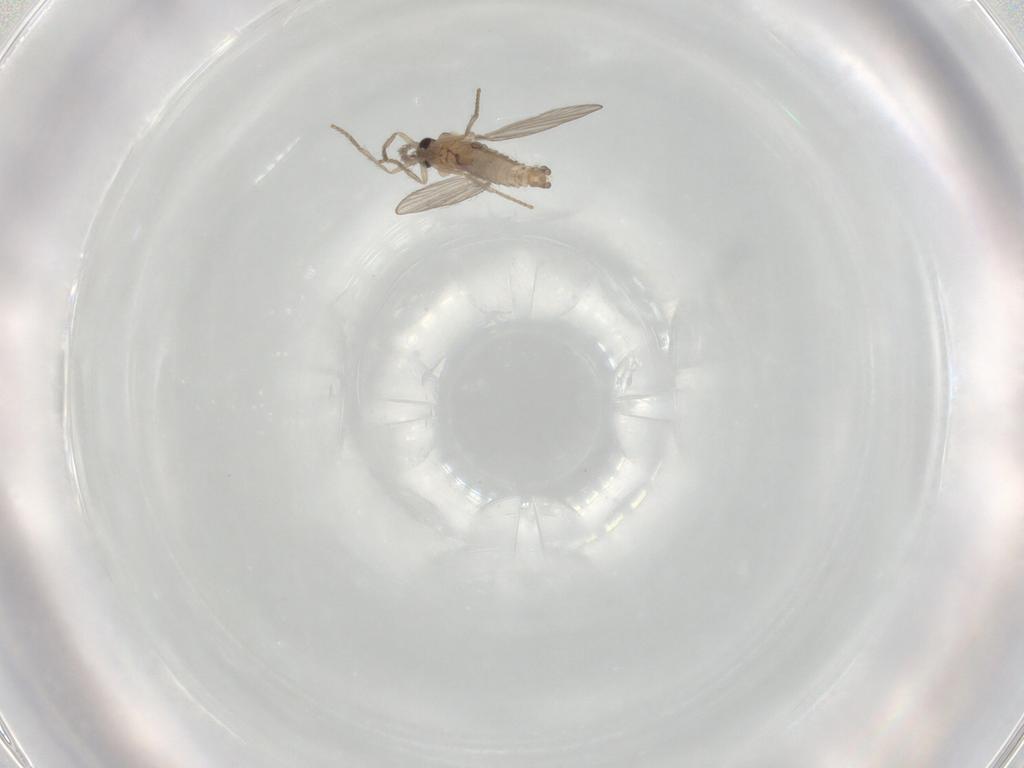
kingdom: Animalia
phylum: Arthropoda
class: Insecta
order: Diptera
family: Psychodidae
